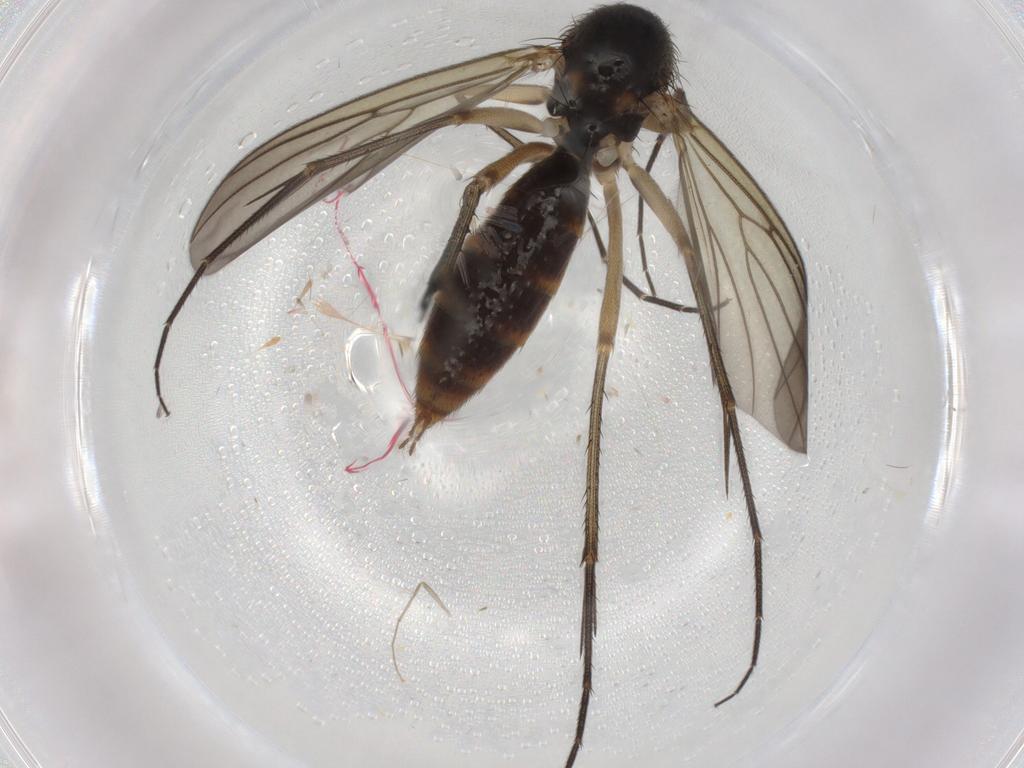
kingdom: Animalia
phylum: Arthropoda
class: Insecta
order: Diptera
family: Mycetophilidae
